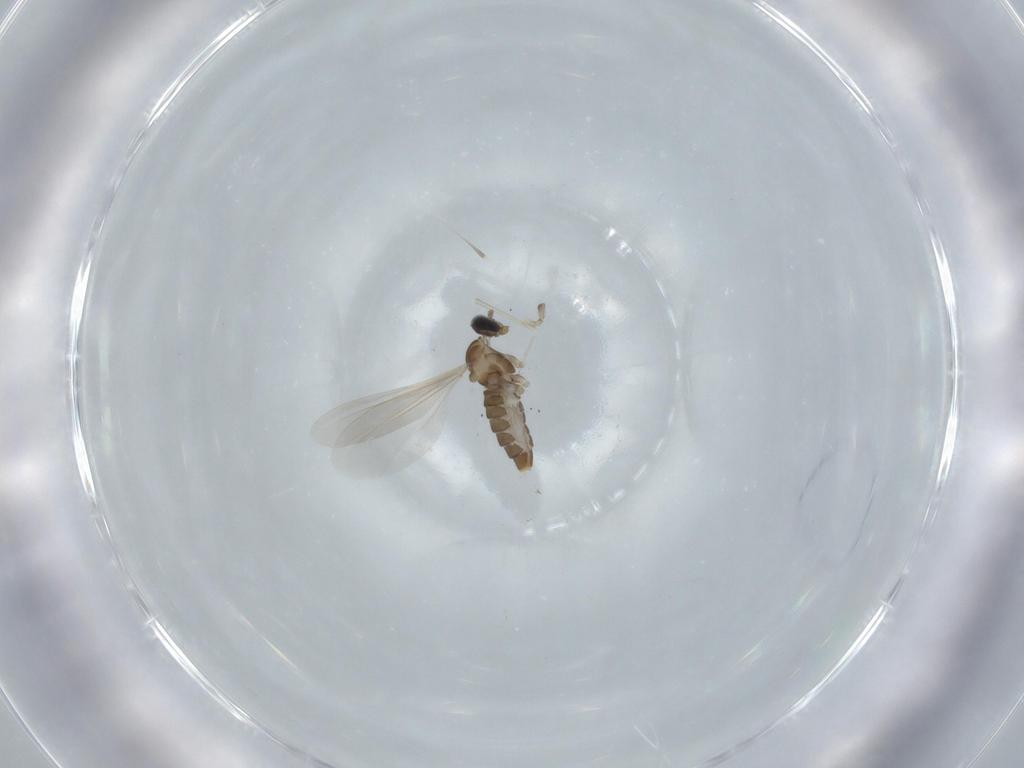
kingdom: Animalia
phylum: Arthropoda
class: Insecta
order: Diptera
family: Cecidomyiidae
